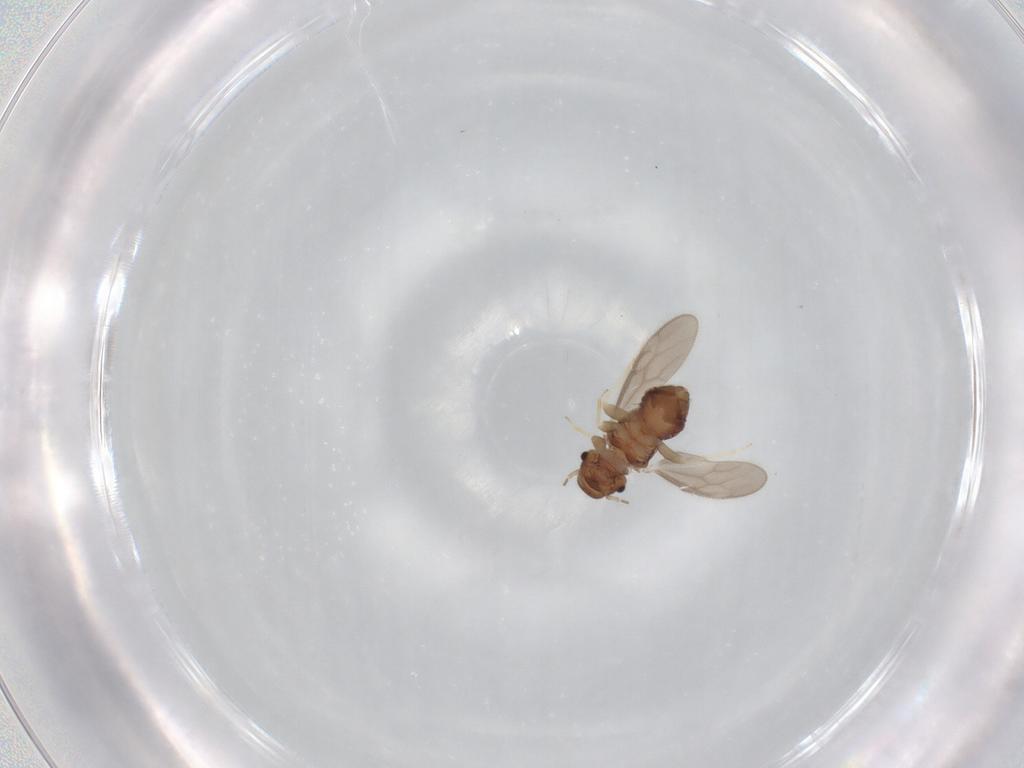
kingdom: Animalia
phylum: Arthropoda
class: Insecta
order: Psocodea
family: Archipsocidae
